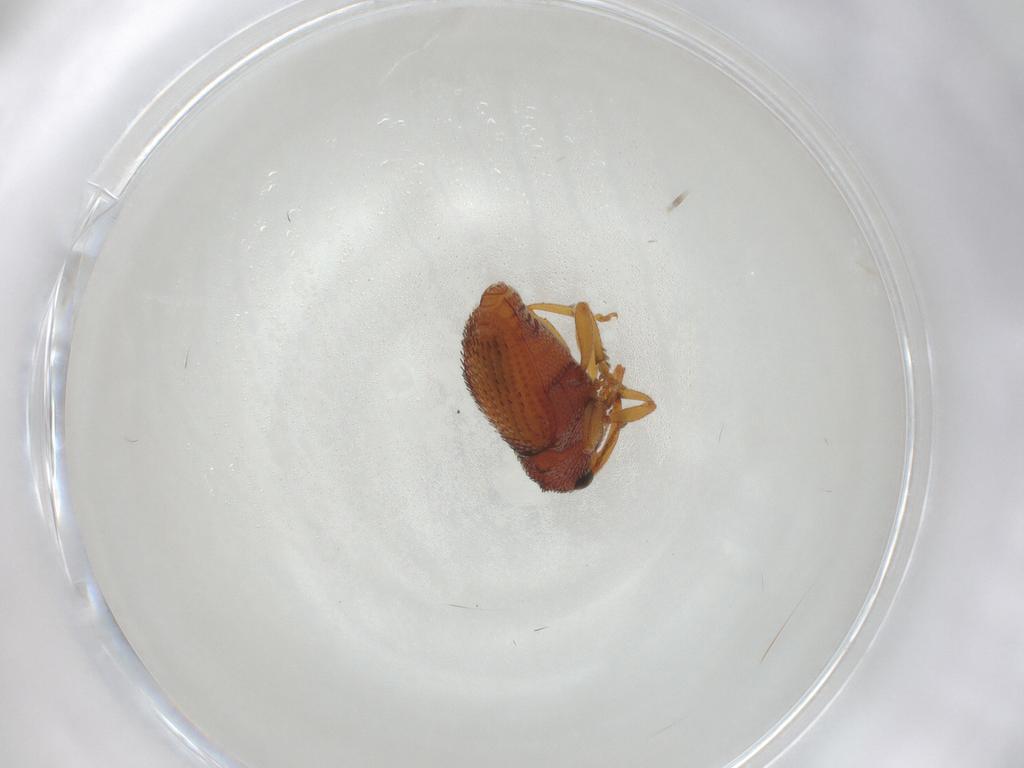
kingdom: Animalia
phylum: Arthropoda
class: Insecta
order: Coleoptera
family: Curculionidae
